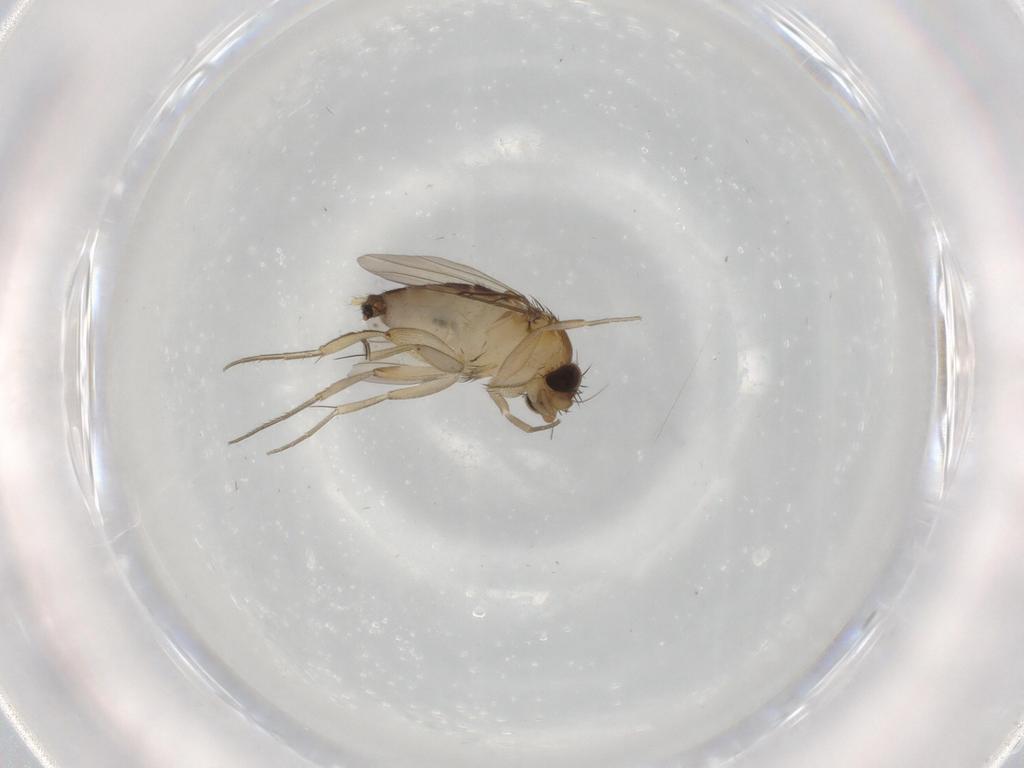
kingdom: Animalia
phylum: Arthropoda
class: Insecta
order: Diptera
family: Phoridae
